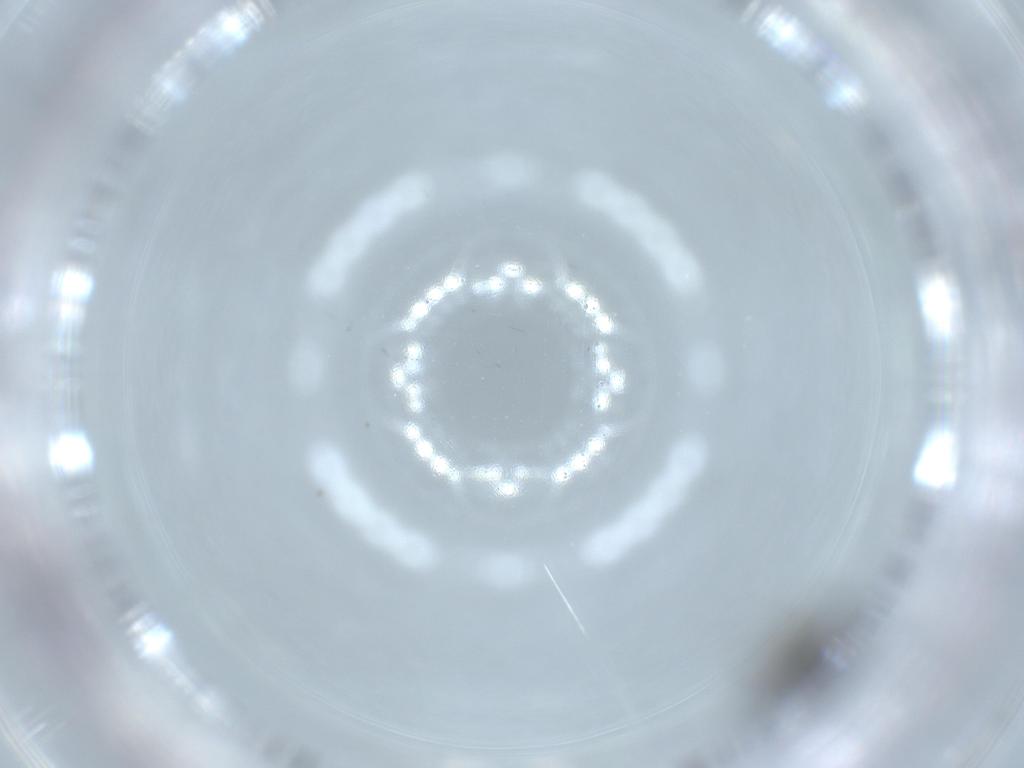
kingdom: Animalia
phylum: Arthropoda
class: Insecta
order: Diptera
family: Phoridae
